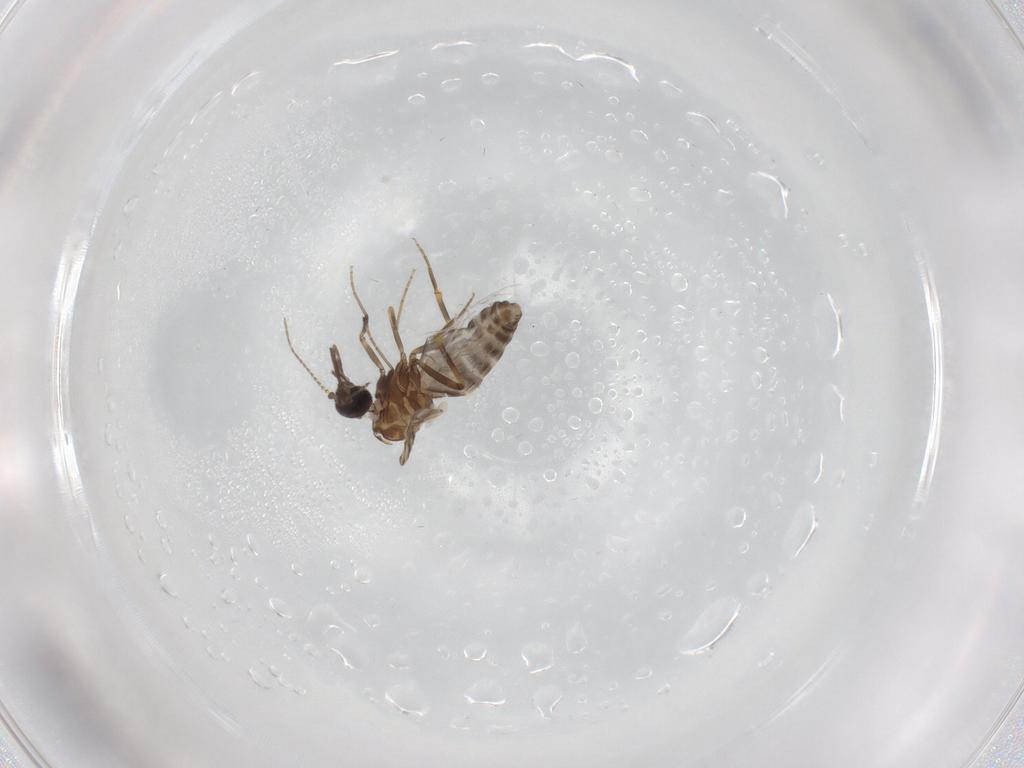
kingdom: Animalia
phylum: Arthropoda
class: Insecta
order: Diptera
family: Ceratopogonidae
